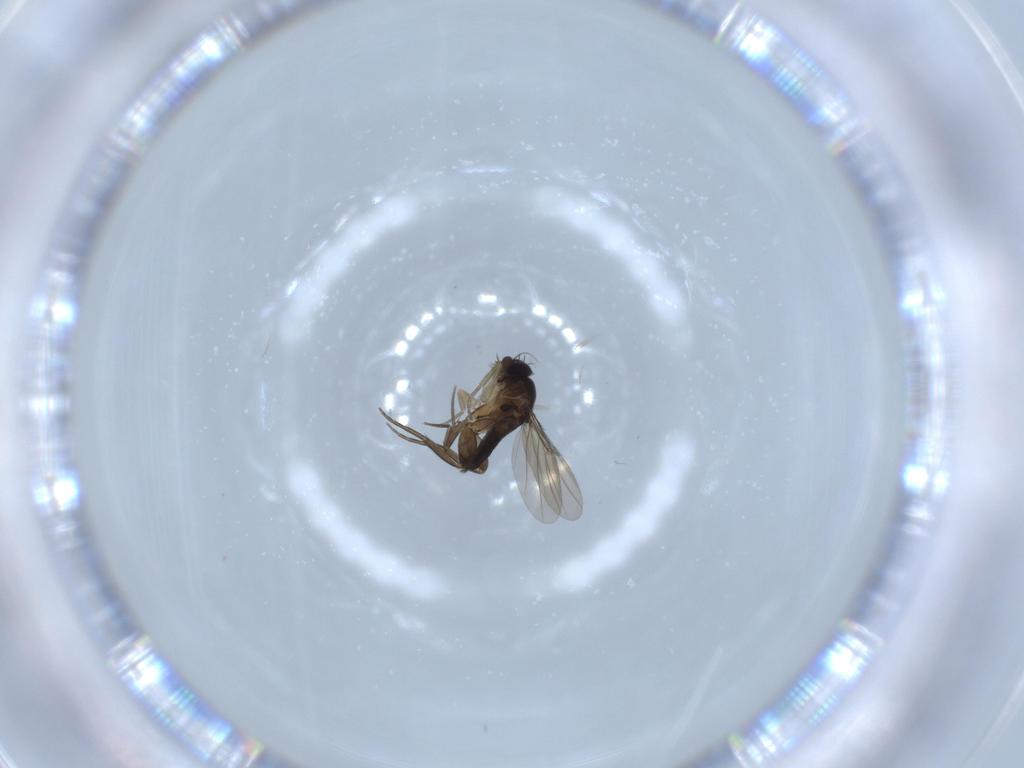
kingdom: Animalia
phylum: Arthropoda
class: Insecta
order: Diptera
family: Phoridae
